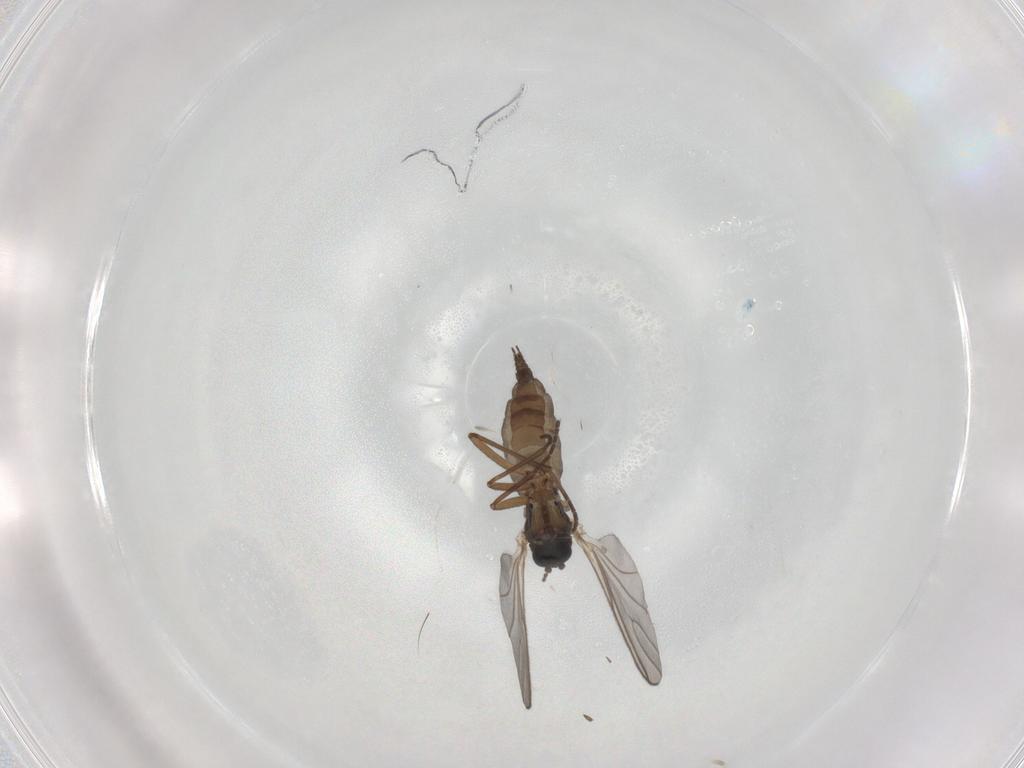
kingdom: Animalia
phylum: Arthropoda
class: Insecta
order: Diptera
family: Sciaridae
